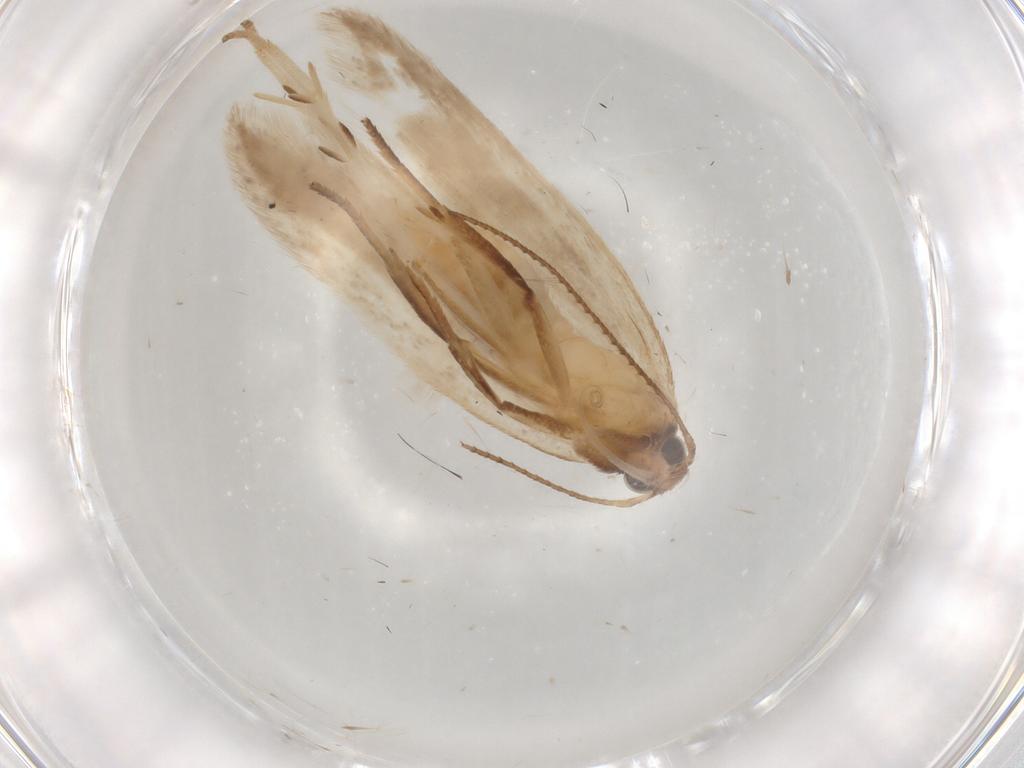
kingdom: Animalia
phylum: Arthropoda
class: Insecta
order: Lepidoptera
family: Gelechiidae
